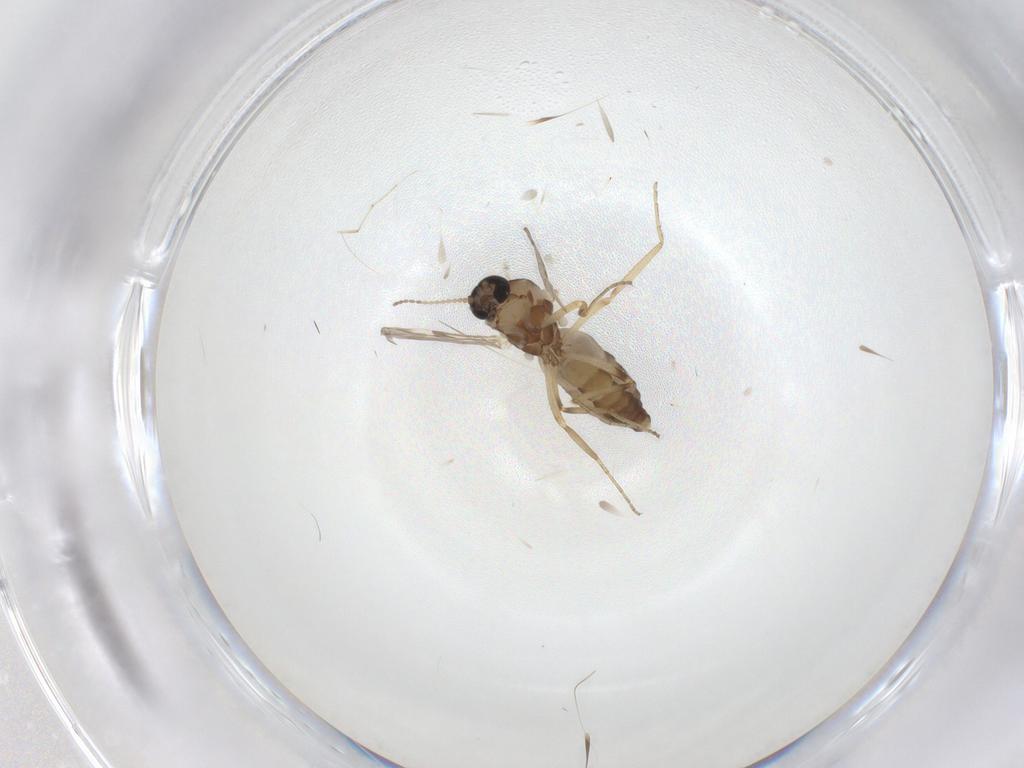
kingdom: Animalia
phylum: Arthropoda
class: Insecta
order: Diptera
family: Ceratopogonidae
